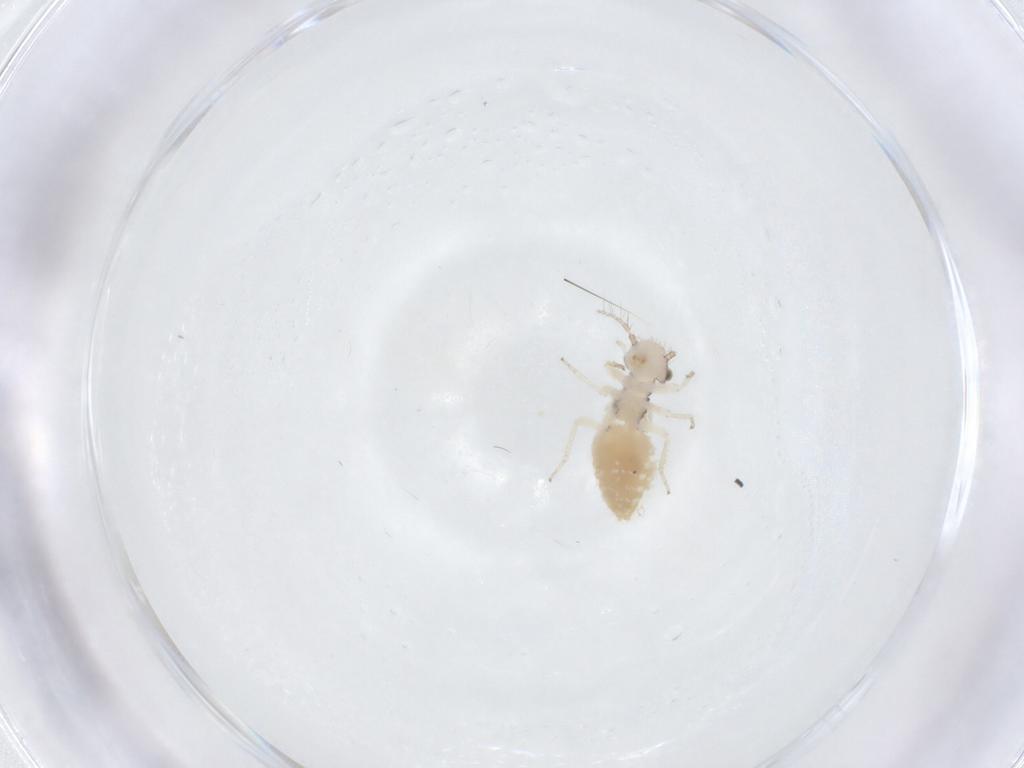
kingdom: Animalia
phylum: Arthropoda
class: Insecta
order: Psocodea
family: Pseudocaeciliidae
